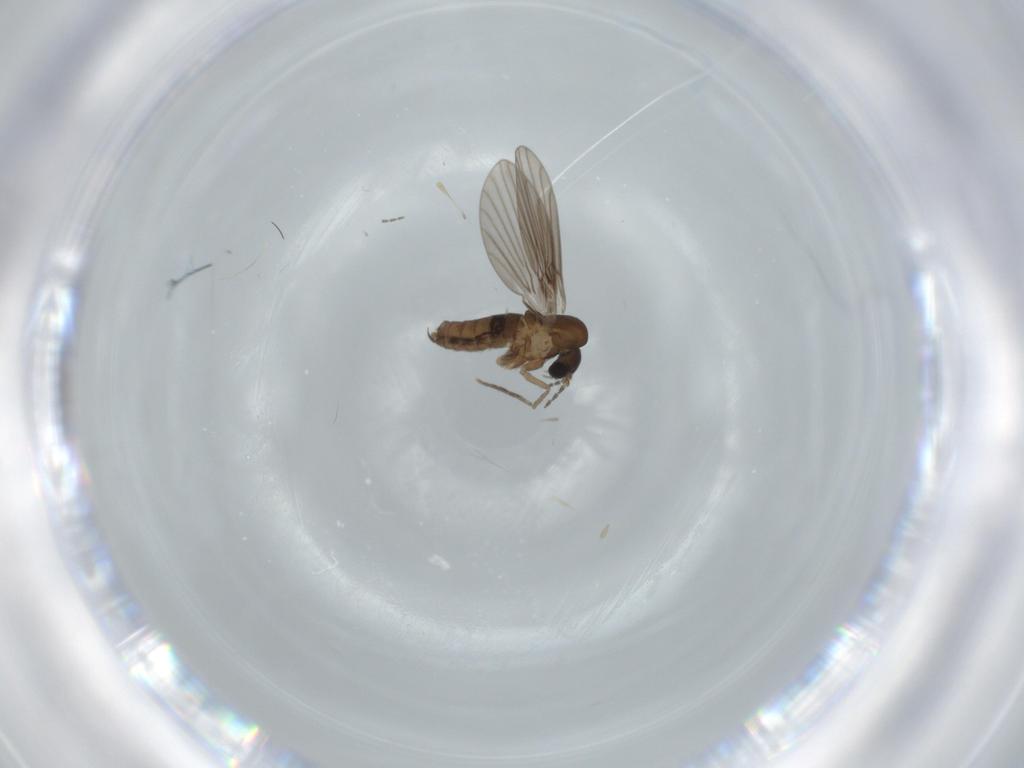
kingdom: Animalia
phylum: Arthropoda
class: Insecta
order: Diptera
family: Psychodidae
